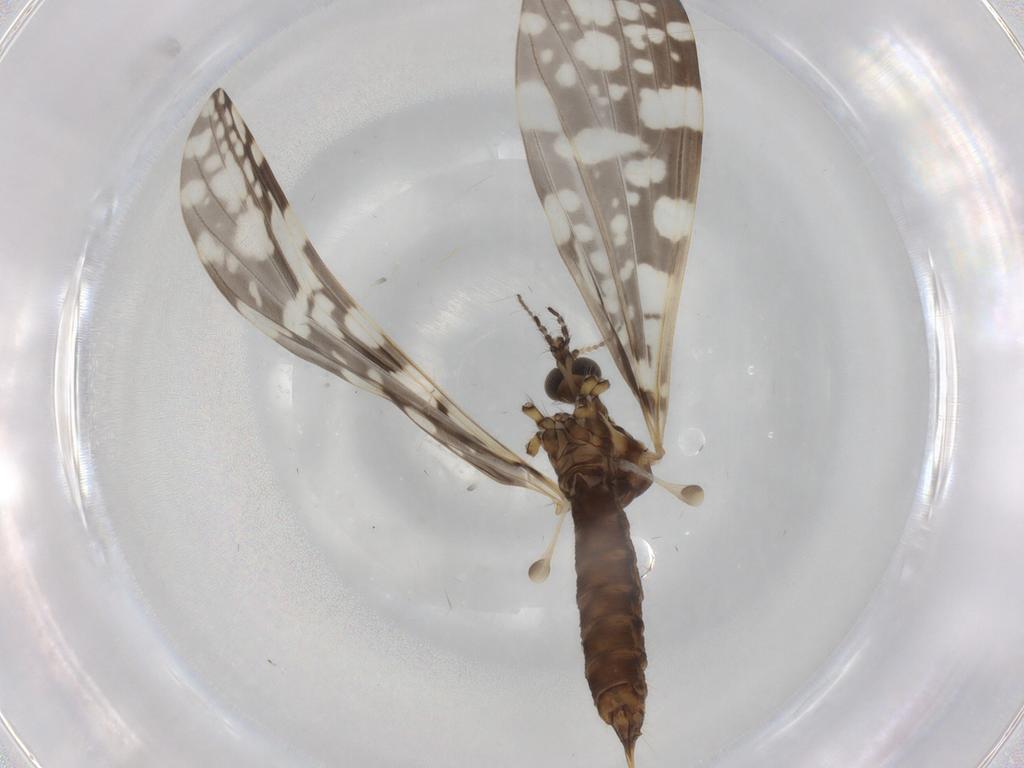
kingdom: Animalia
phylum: Arthropoda
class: Insecta
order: Diptera
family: Limoniidae
